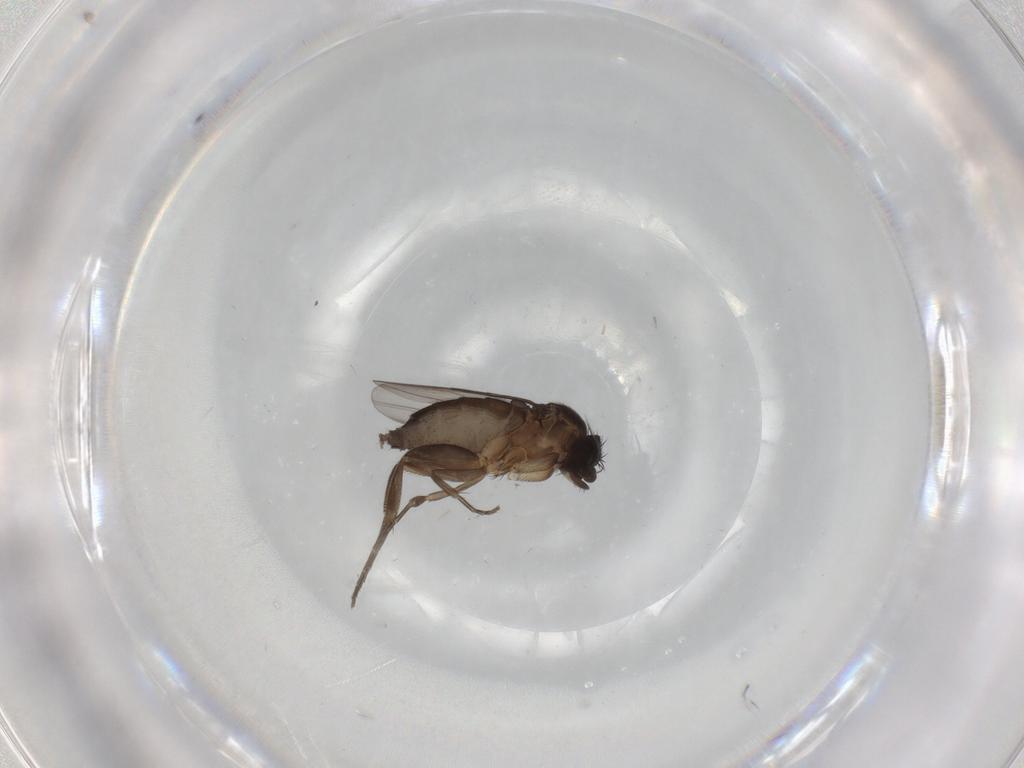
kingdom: Animalia
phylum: Arthropoda
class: Insecta
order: Diptera
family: Phoridae
